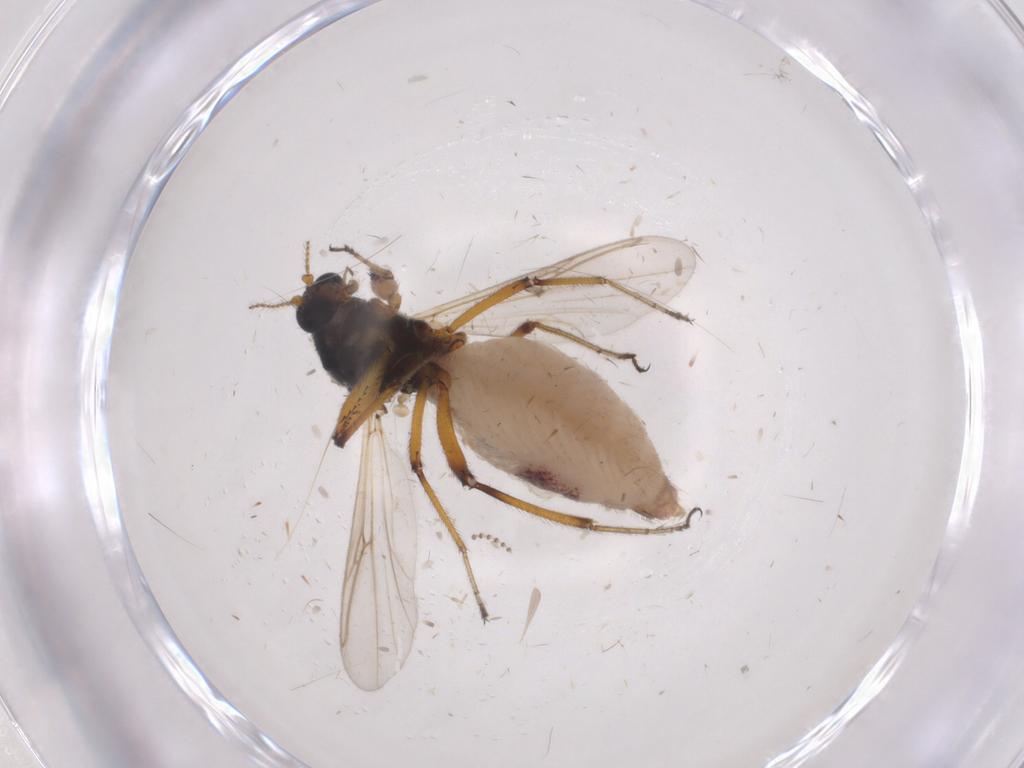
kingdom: Animalia
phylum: Arthropoda
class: Insecta
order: Diptera
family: Ceratopogonidae
